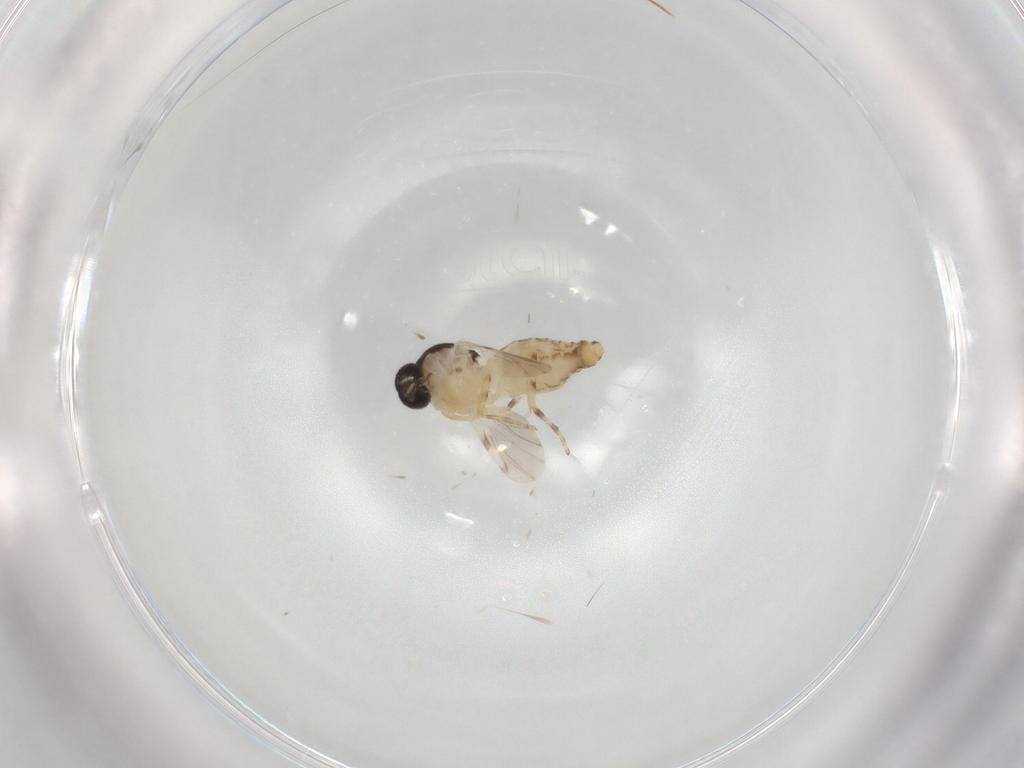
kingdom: Animalia
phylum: Arthropoda
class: Insecta
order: Diptera
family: Ceratopogonidae
